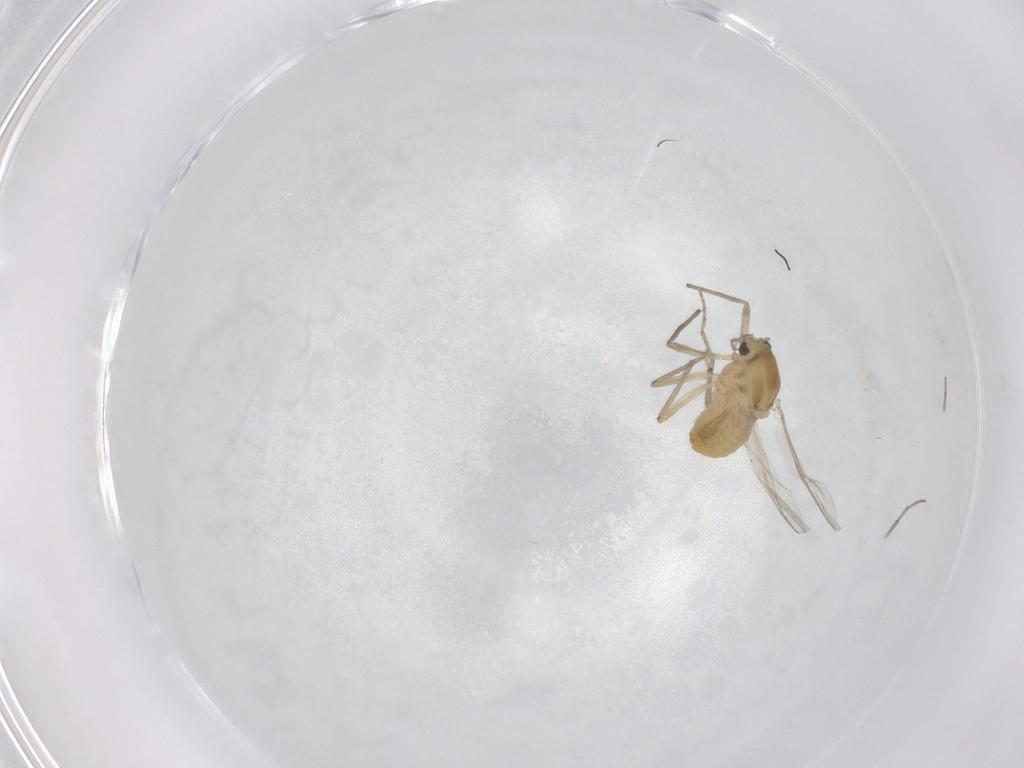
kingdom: Animalia
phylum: Arthropoda
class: Insecta
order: Diptera
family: Chironomidae
